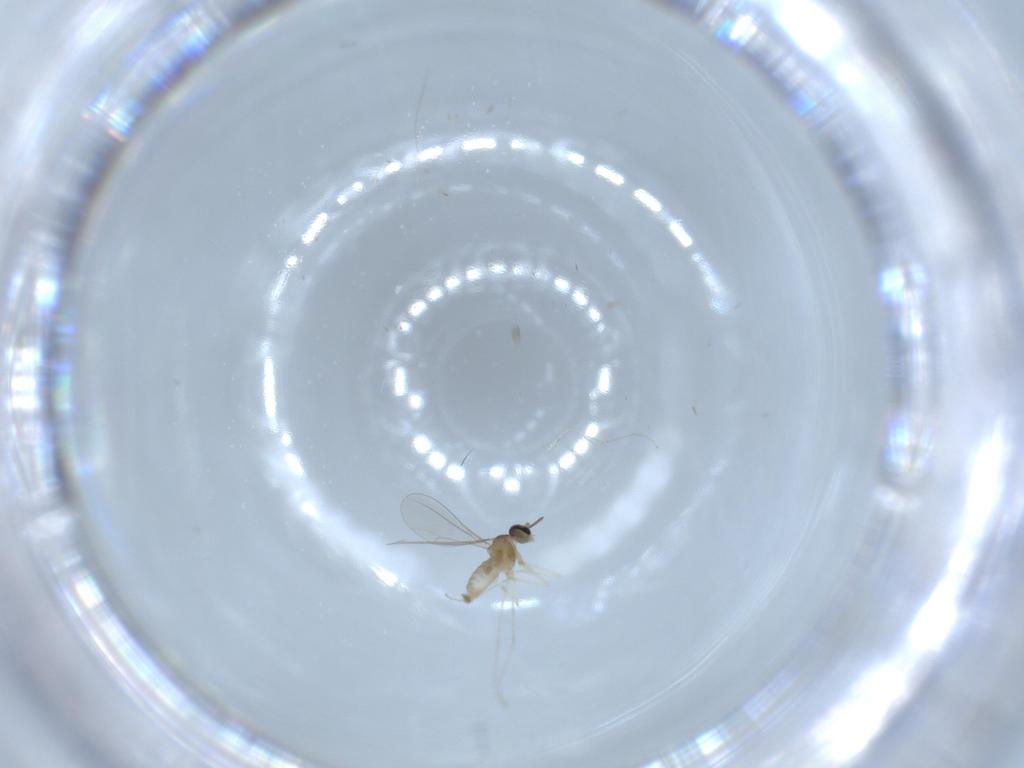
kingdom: Animalia
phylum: Arthropoda
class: Insecta
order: Diptera
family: Cecidomyiidae
